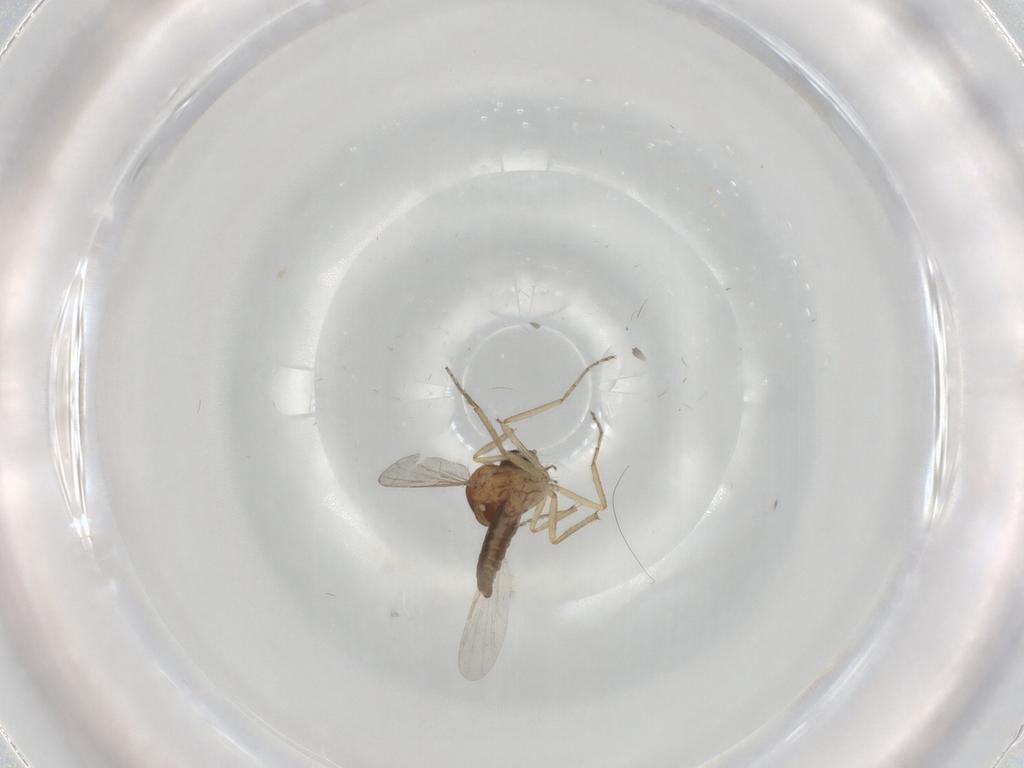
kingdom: Animalia
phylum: Arthropoda
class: Insecta
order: Diptera
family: Ceratopogonidae
